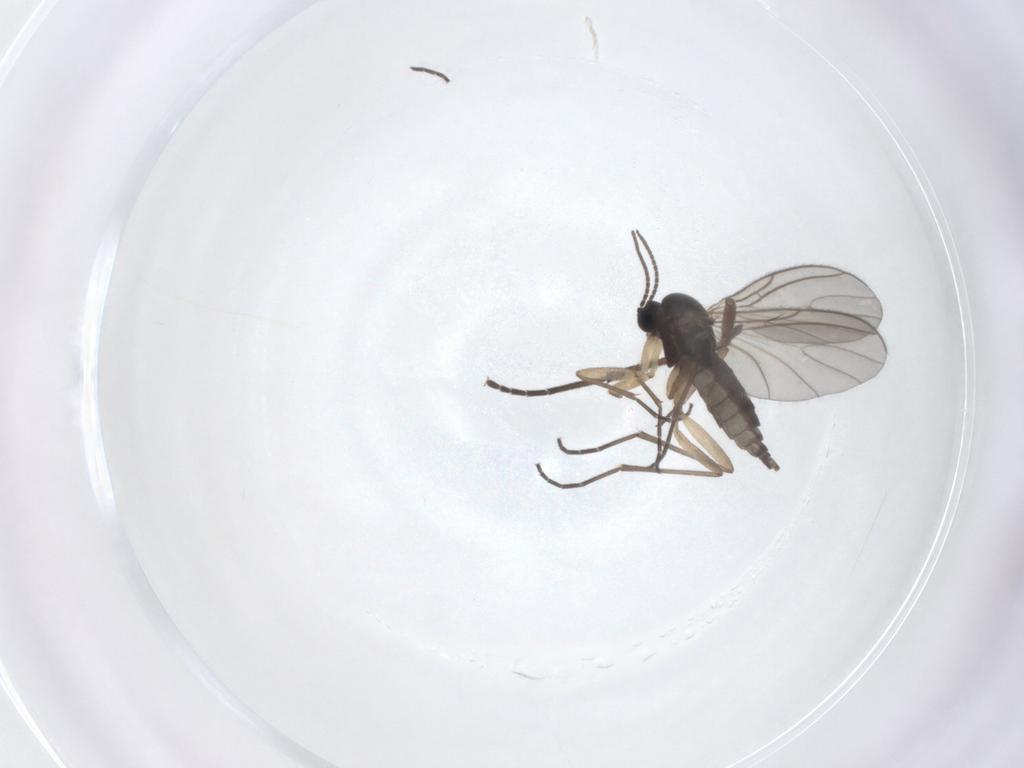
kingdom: Animalia
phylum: Arthropoda
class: Insecta
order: Diptera
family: Sciaridae
